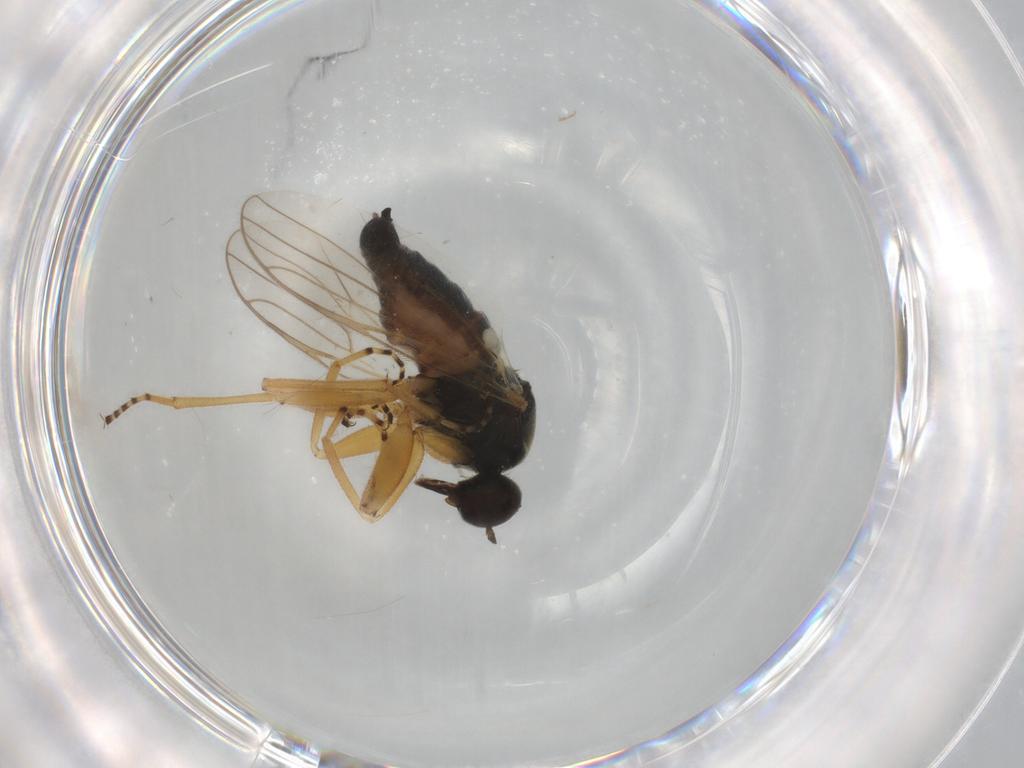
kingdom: Animalia
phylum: Arthropoda
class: Insecta
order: Diptera
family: Hybotidae
